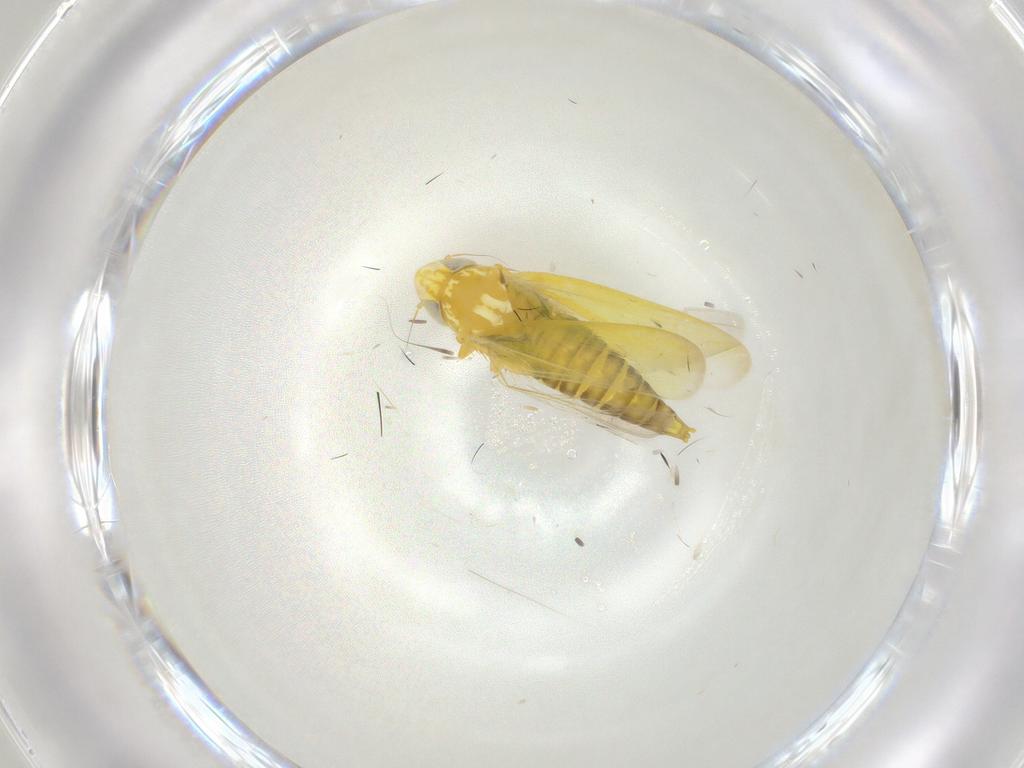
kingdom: Animalia
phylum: Arthropoda
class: Insecta
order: Hemiptera
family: Cicadellidae
